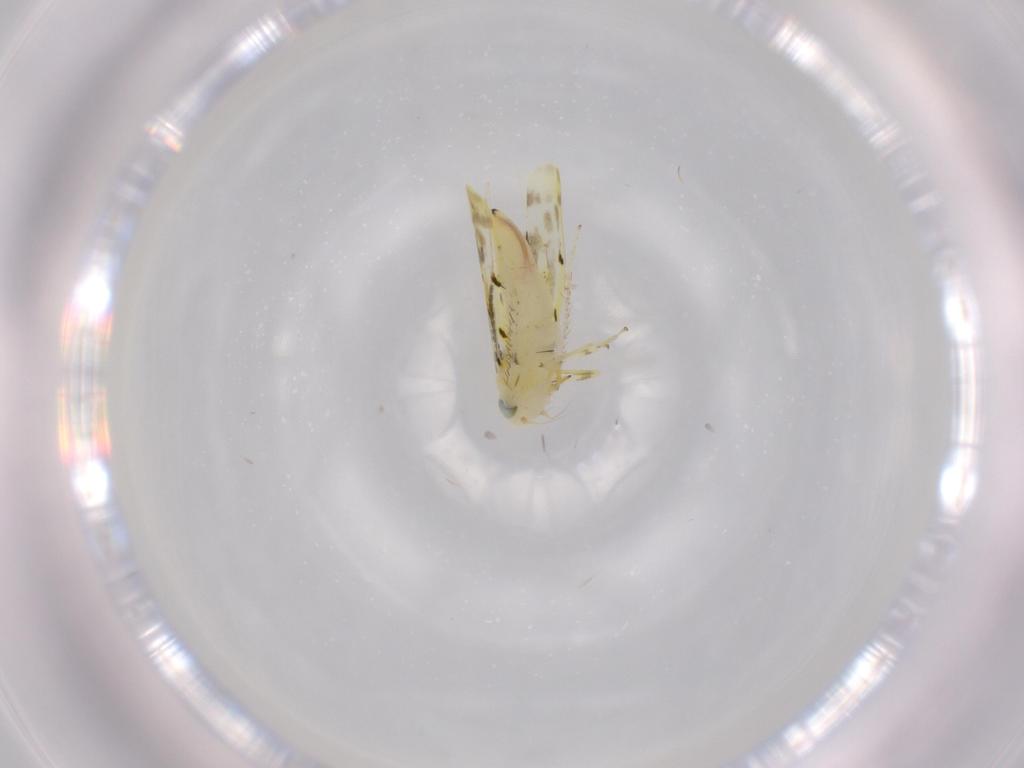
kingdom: Animalia
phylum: Arthropoda
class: Insecta
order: Hemiptera
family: Cicadellidae
